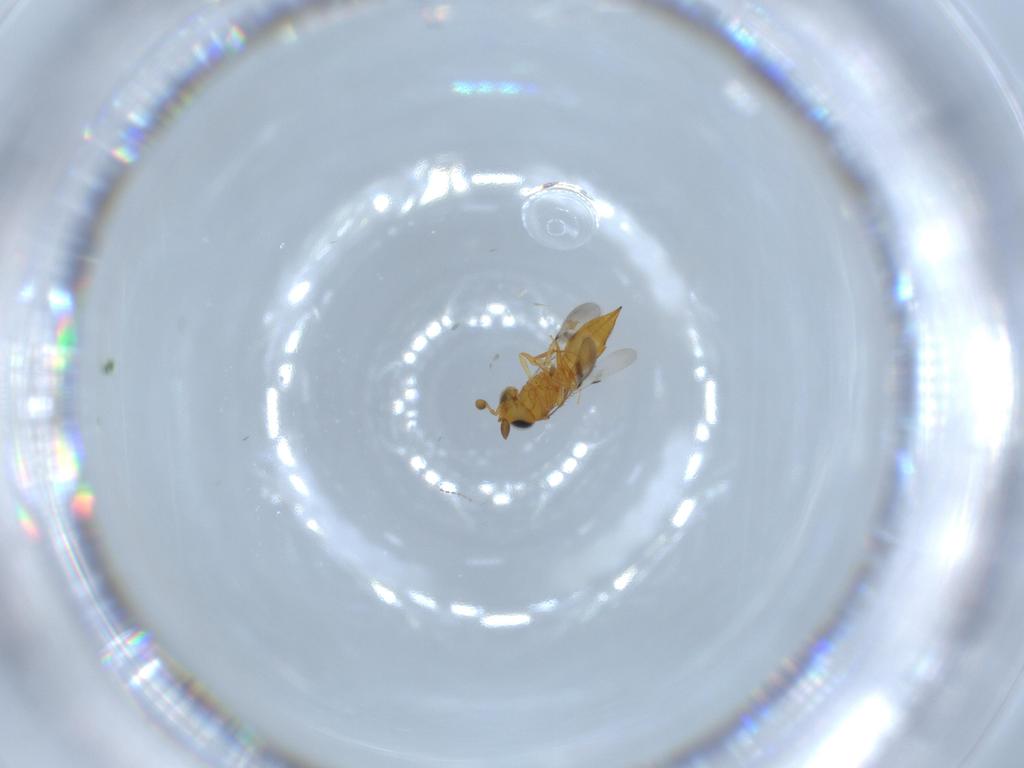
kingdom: Animalia
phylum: Arthropoda
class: Insecta
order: Hymenoptera
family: Scelionidae
